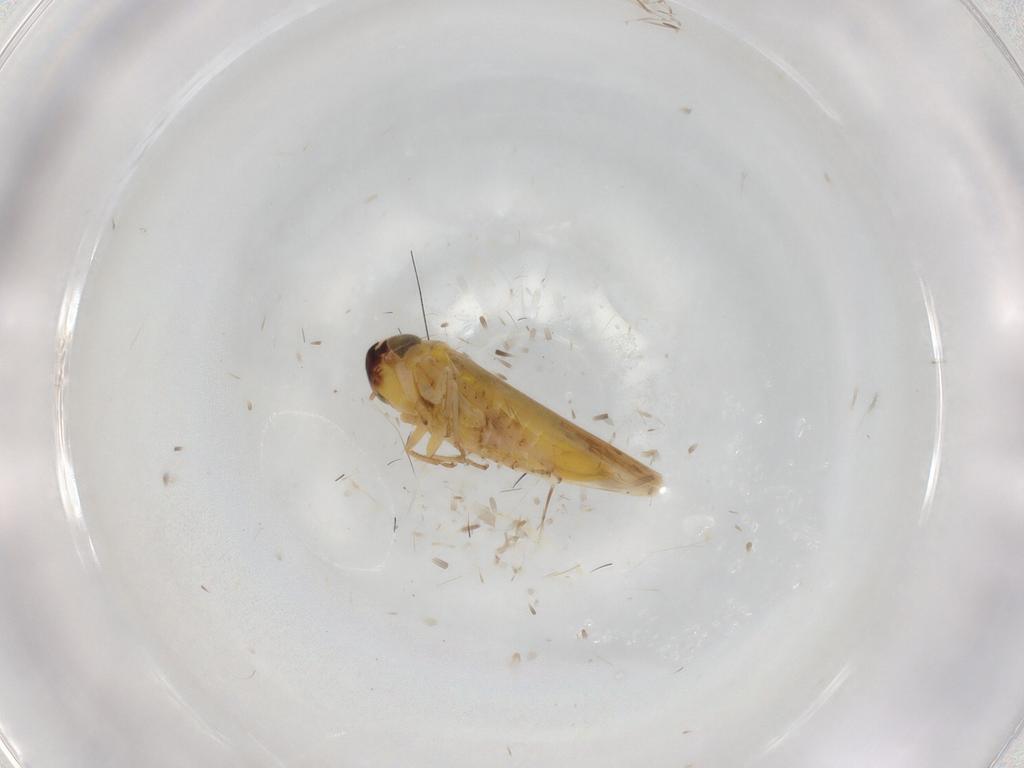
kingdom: Animalia
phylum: Arthropoda
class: Insecta
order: Hemiptera
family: Cicadellidae
